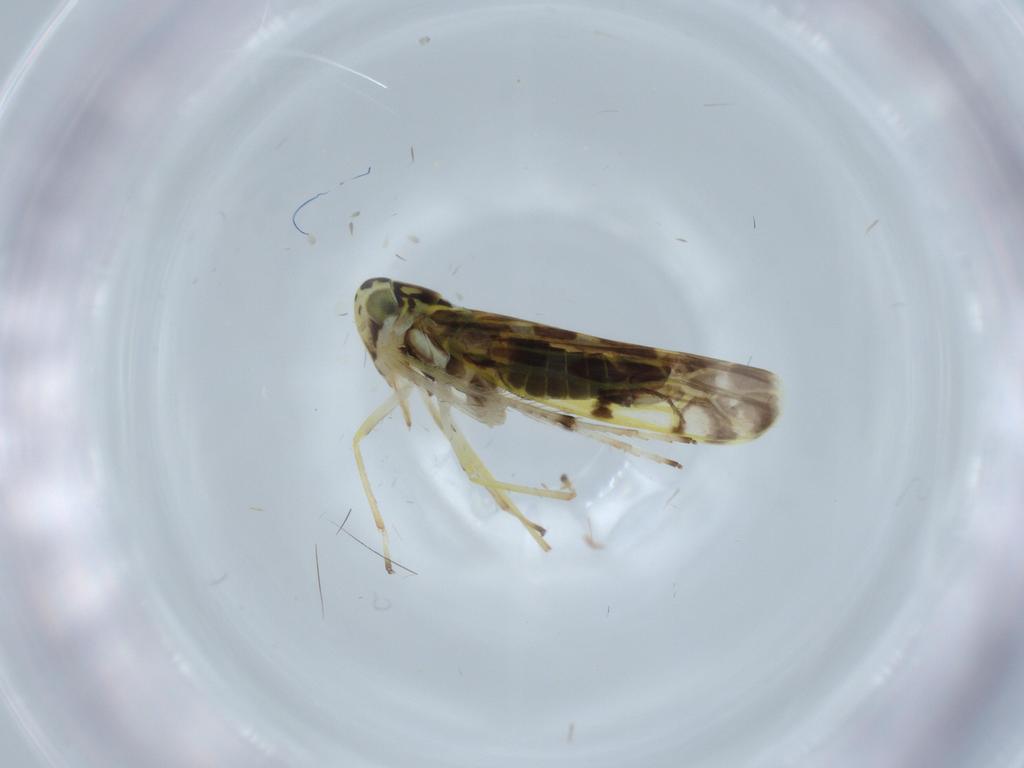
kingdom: Animalia
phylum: Arthropoda
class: Insecta
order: Hemiptera
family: Cicadellidae
